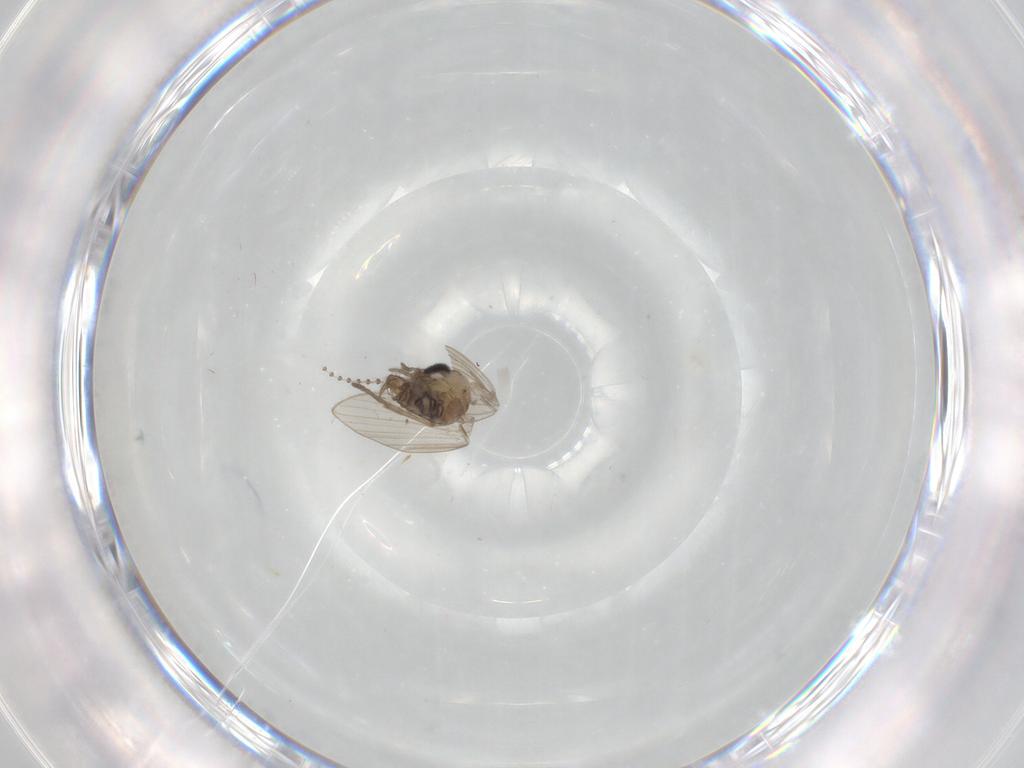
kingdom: Animalia
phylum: Arthropoda
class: Insecta
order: Diptera
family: Psychodidae
